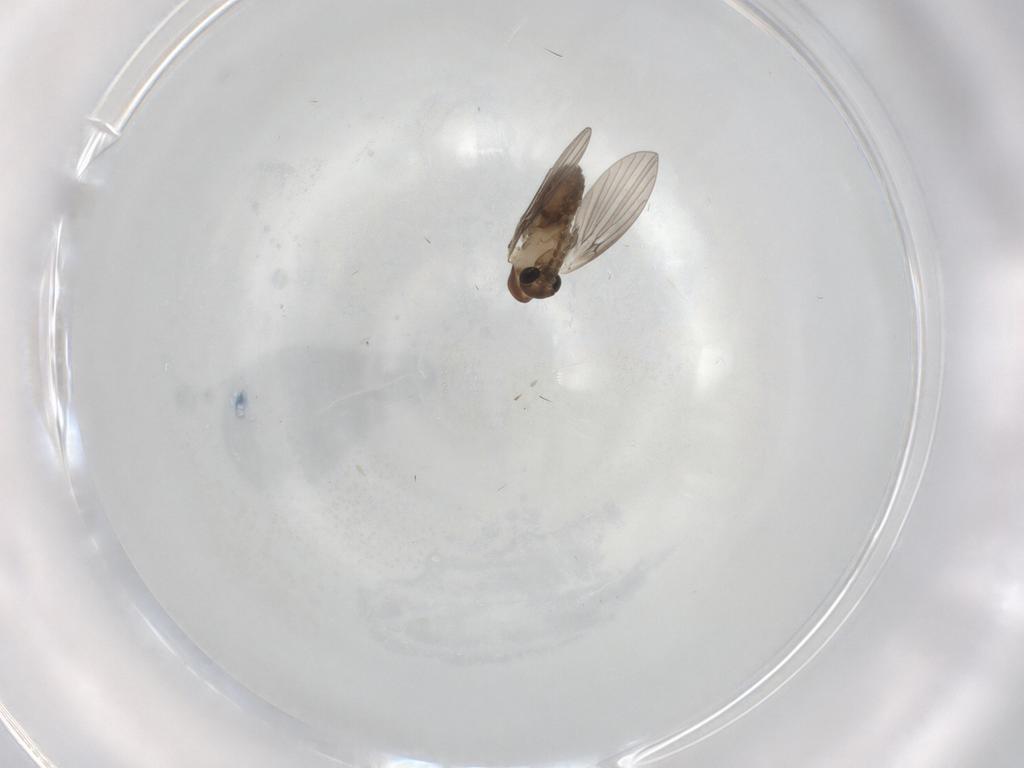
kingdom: Animalia
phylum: Arthropoda
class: Insecta
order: Diptera
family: Psychodidae
